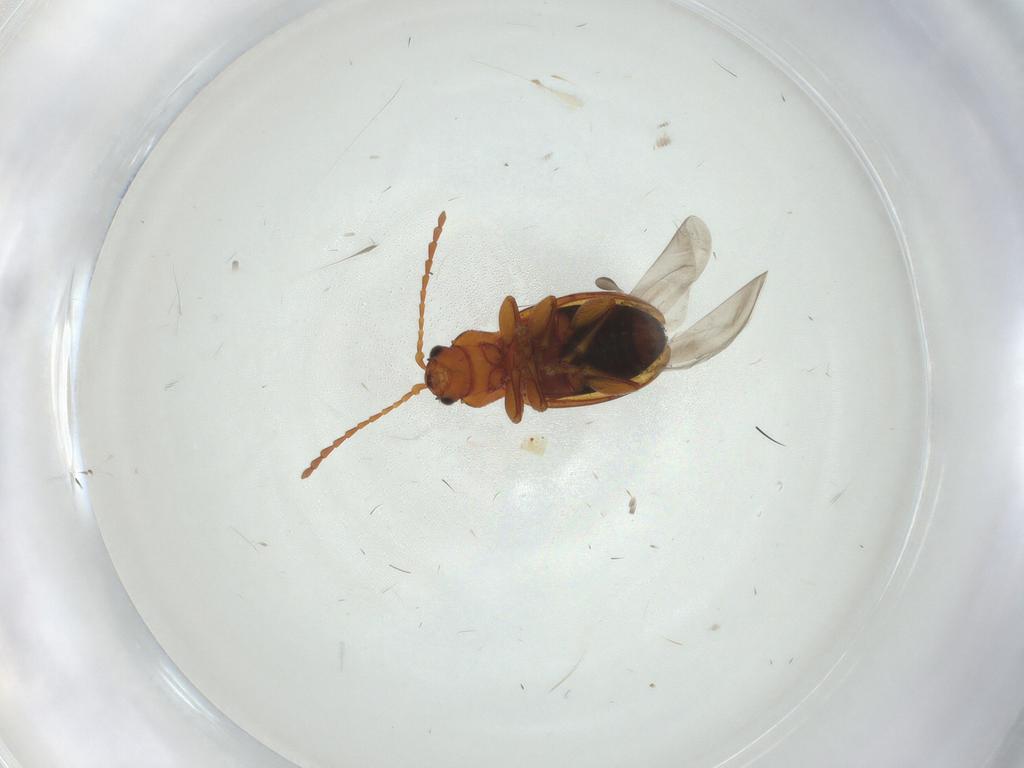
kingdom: Animalia
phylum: Arthropoda
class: Insecta
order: Coleoptera
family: Chrysomelidae
